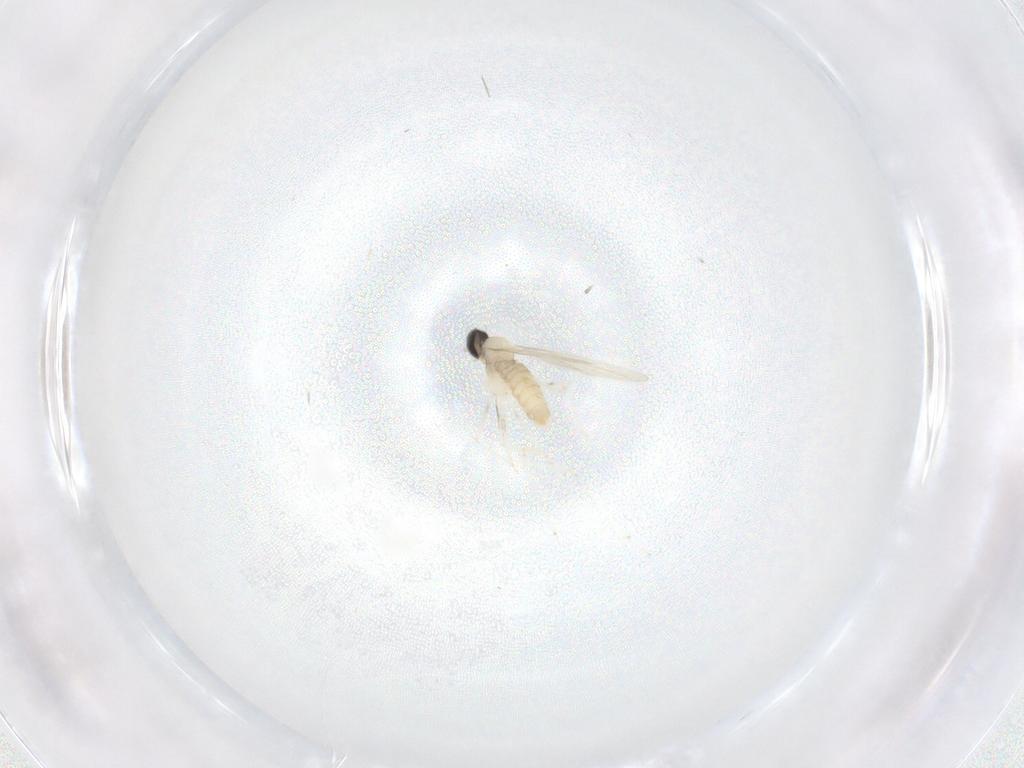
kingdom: Animalia
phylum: Arthropoda
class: Insecta
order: Diptera
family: Cecidomyiidae
